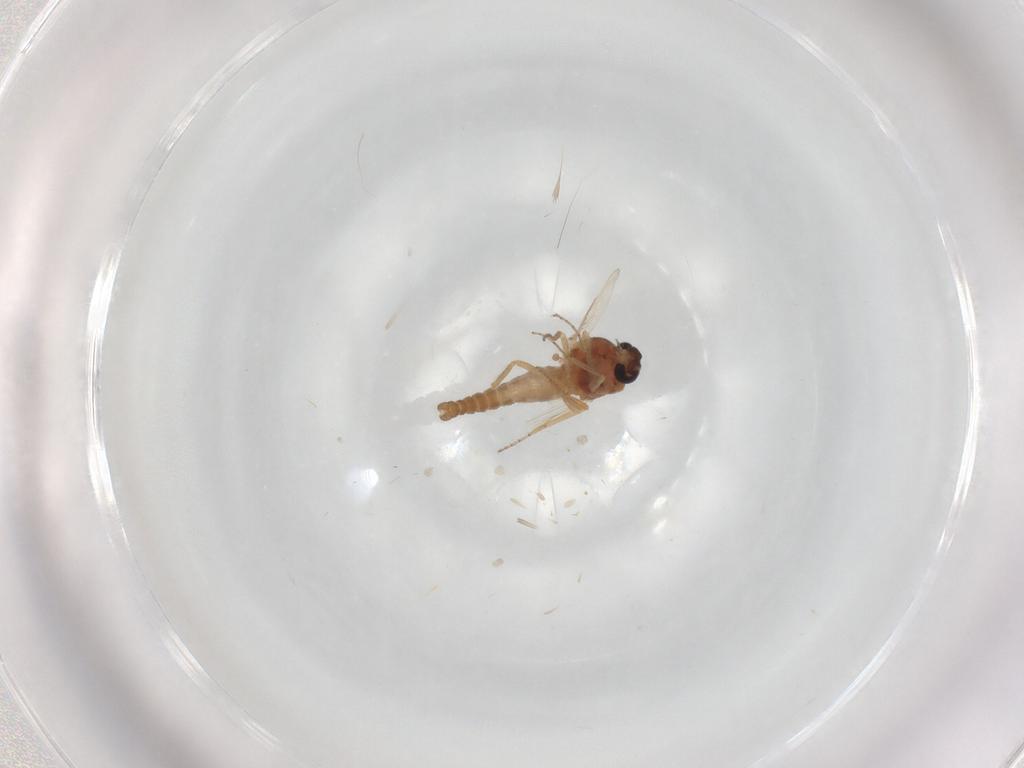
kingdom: Animalia
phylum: Arthropoda
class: Insecta
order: Diptera
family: Ceratopogonidae
